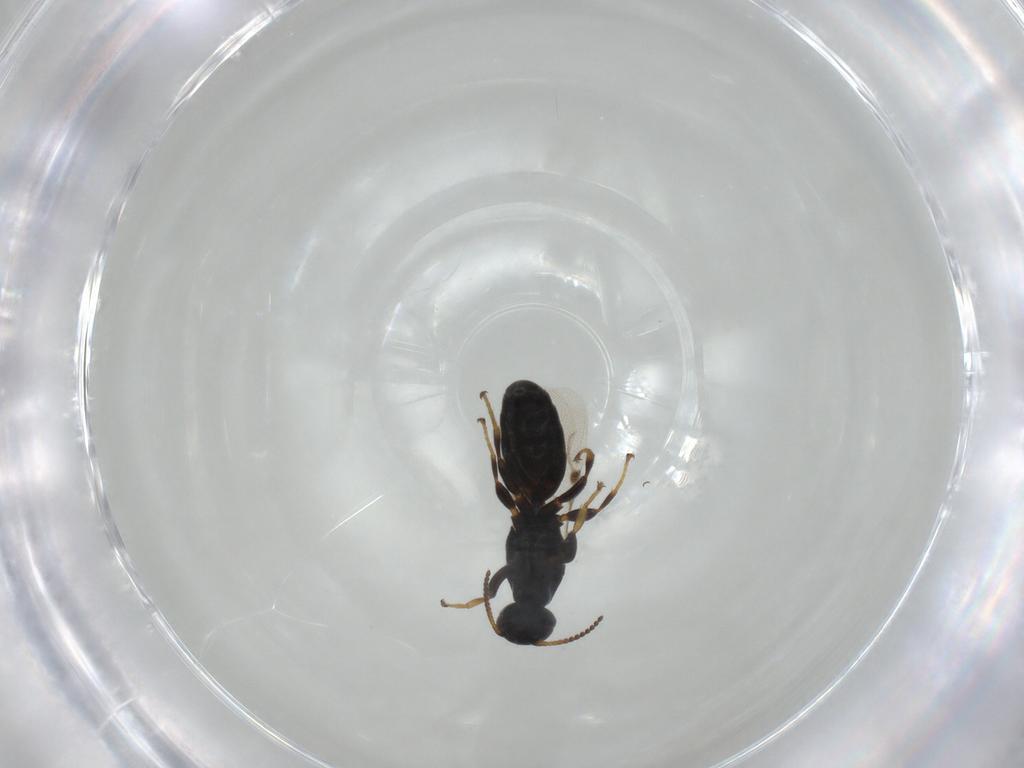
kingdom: Animalia
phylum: Arthropoda
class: Insecta
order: Hymenoptera
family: Bethylidae
